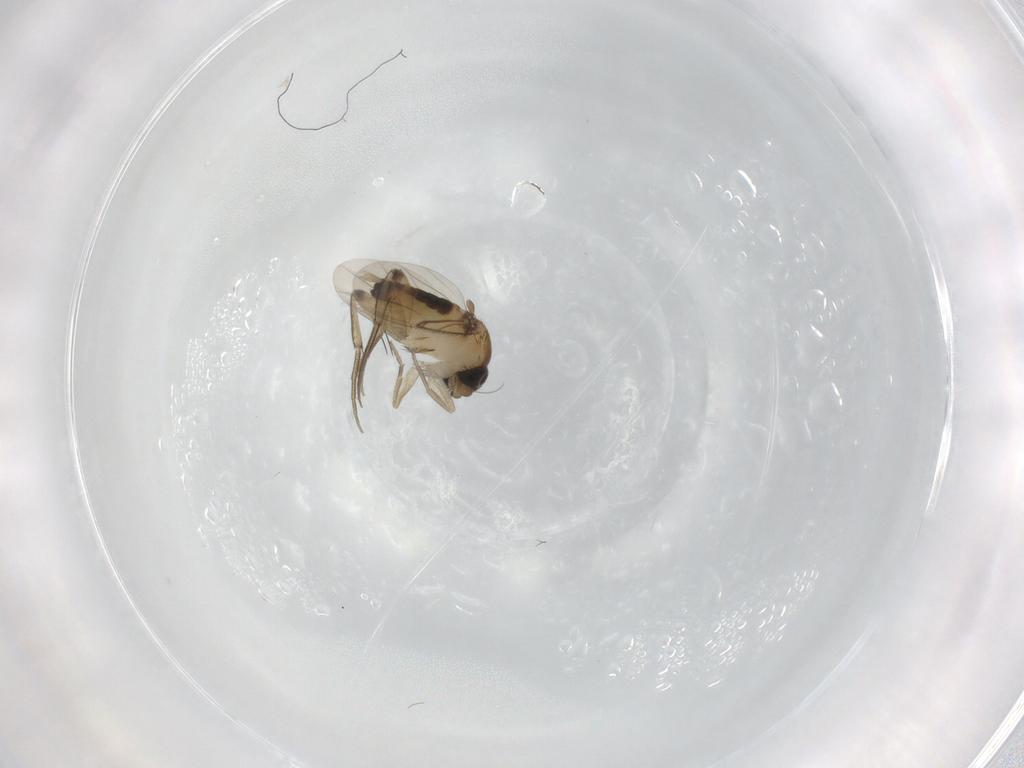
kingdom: Animalia
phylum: Arthropoda
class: Insecta
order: Diptera
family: Phoridae
